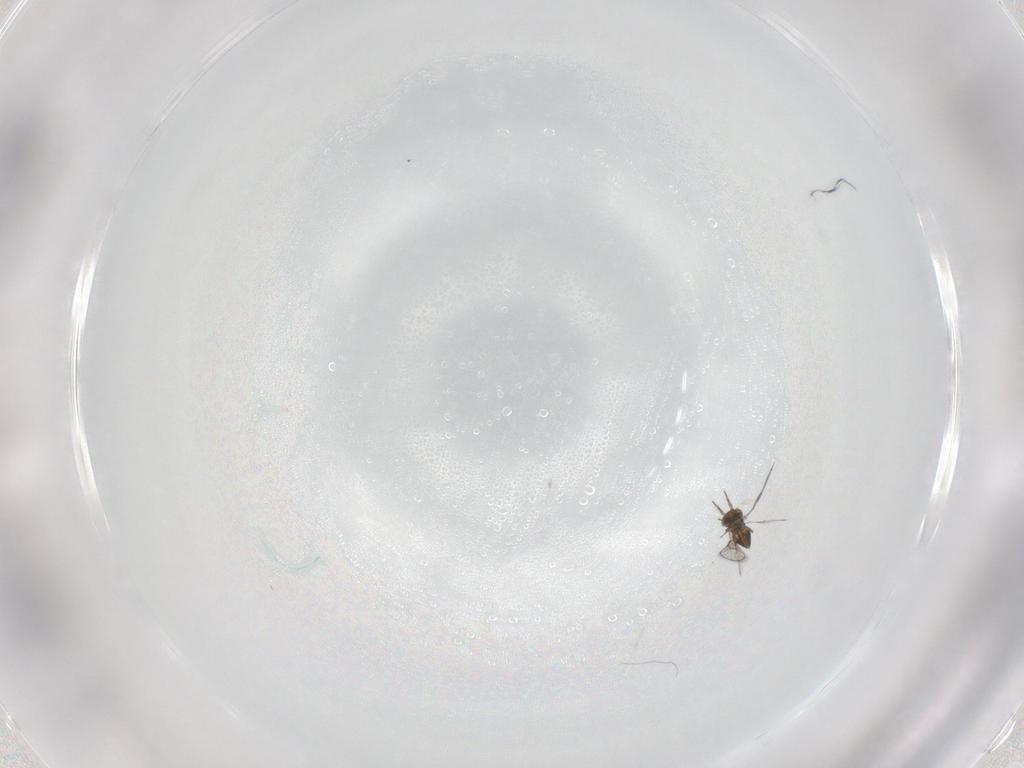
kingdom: Animalia
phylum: Arthropoda
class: Insecta
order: Hymenoptera
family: Trichogrammatidae
